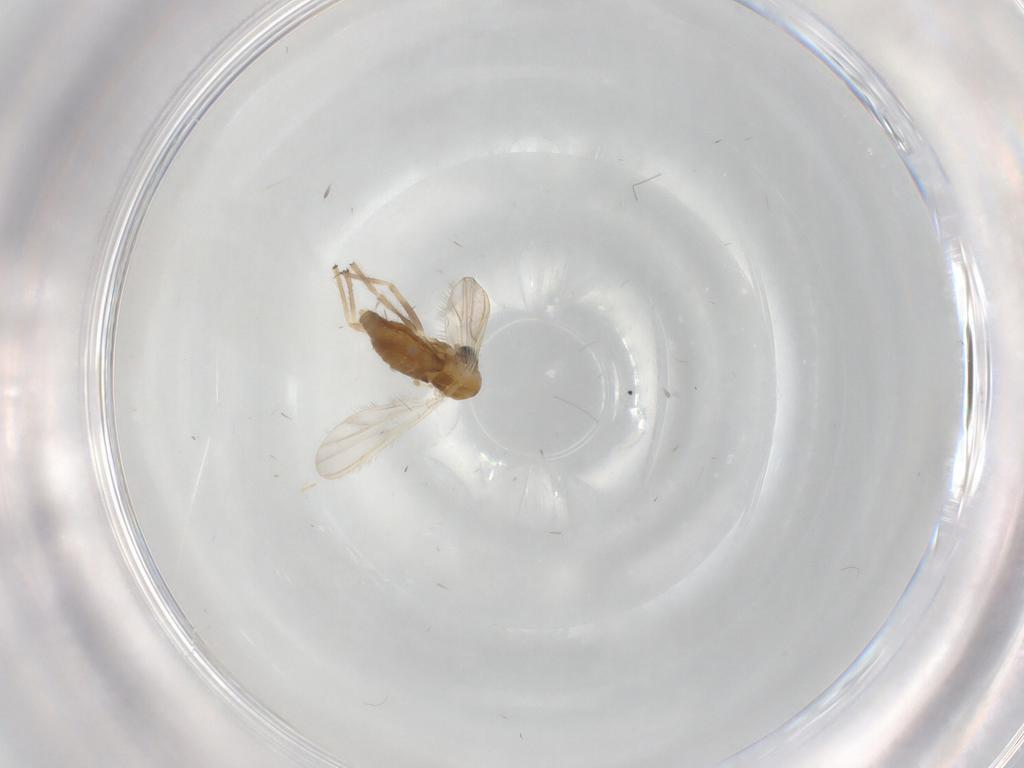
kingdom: Animalia
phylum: Arthropoda
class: Insecta
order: Diptera
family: Chironomidae
